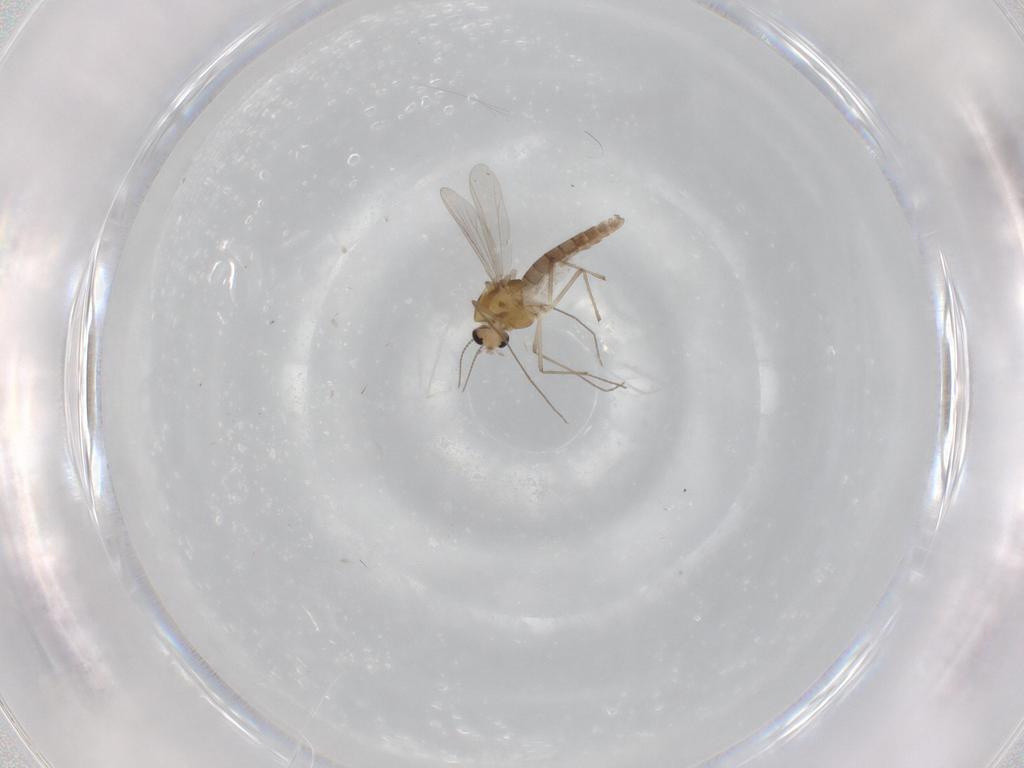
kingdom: Animalia
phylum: Arthropoda
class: Insecta
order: Diptera
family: Chironomidae
